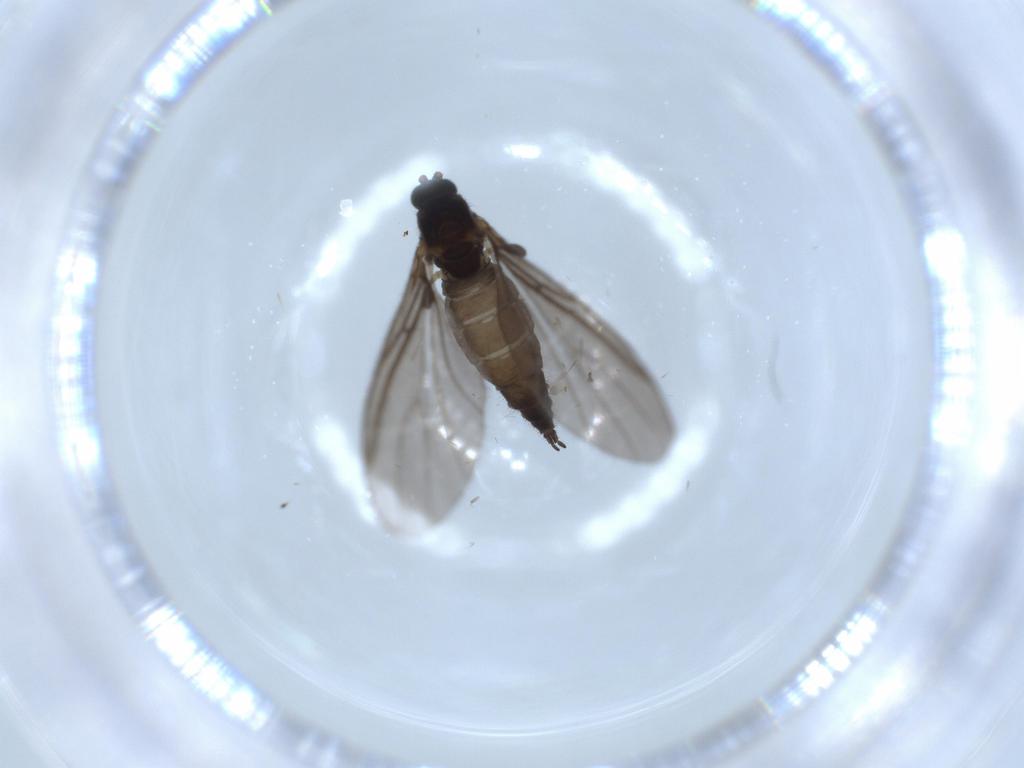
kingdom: Animalia
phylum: Arthropoda
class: Insecta
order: Diptera
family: Sciaridae
